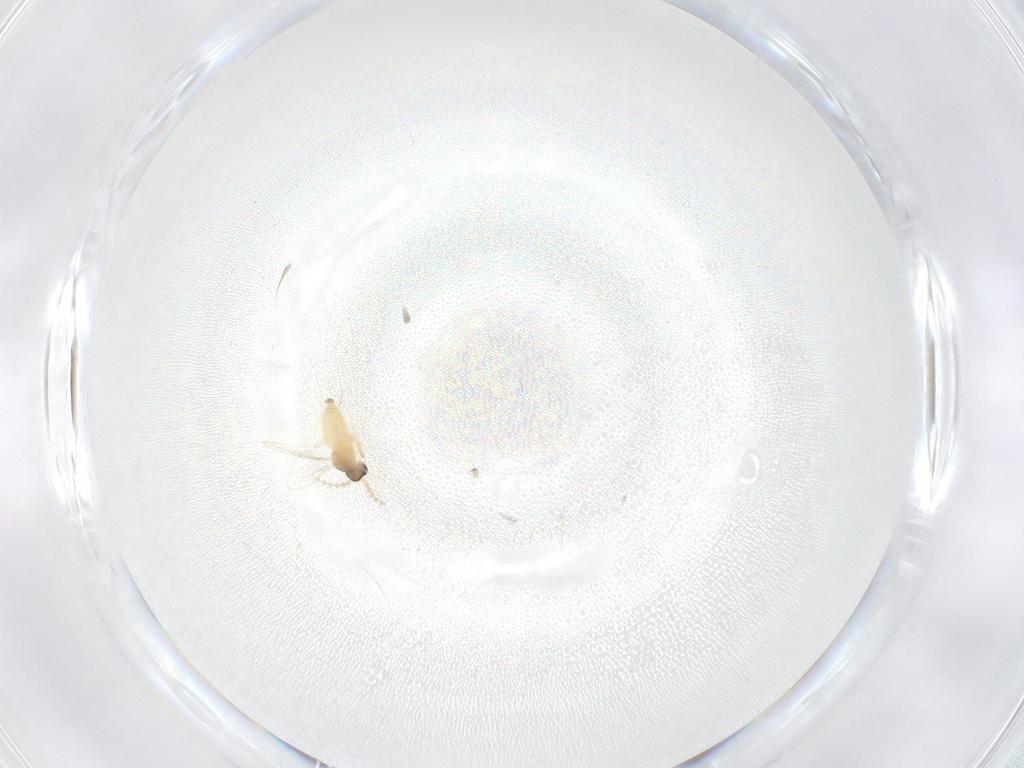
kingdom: Animalia
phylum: Arthropoda
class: Insecta
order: Diptera
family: Cecidomyiidae
